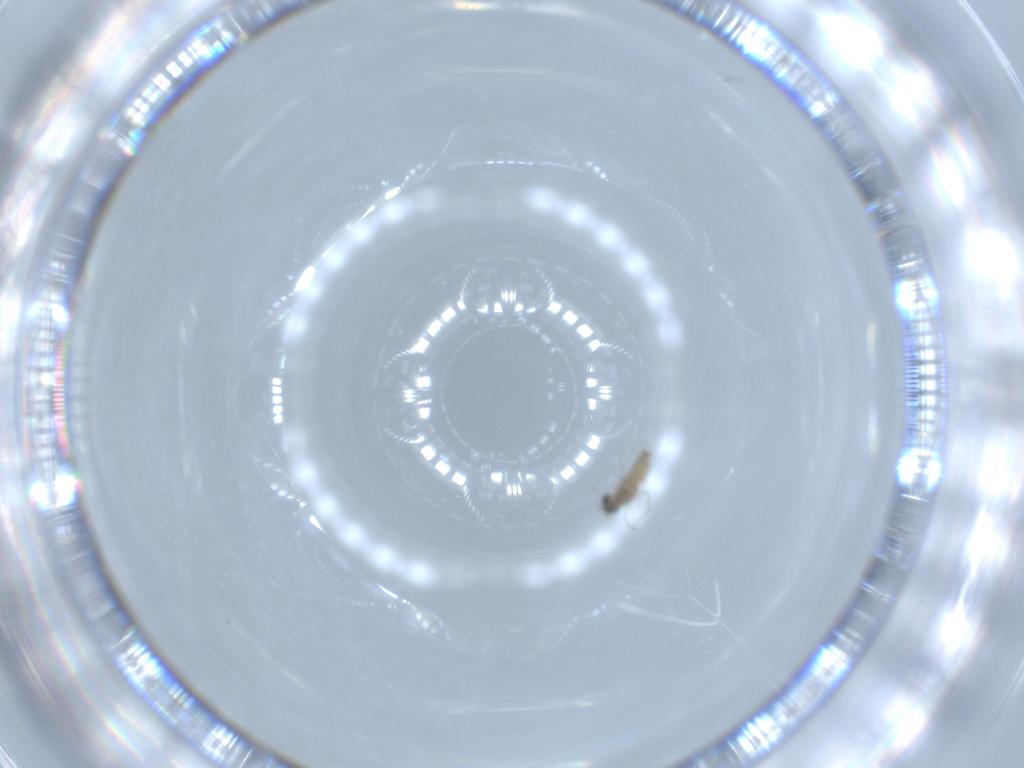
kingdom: Animalia
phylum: Arthropoda
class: Insecta
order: Diptera
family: Cecidomyiidae
